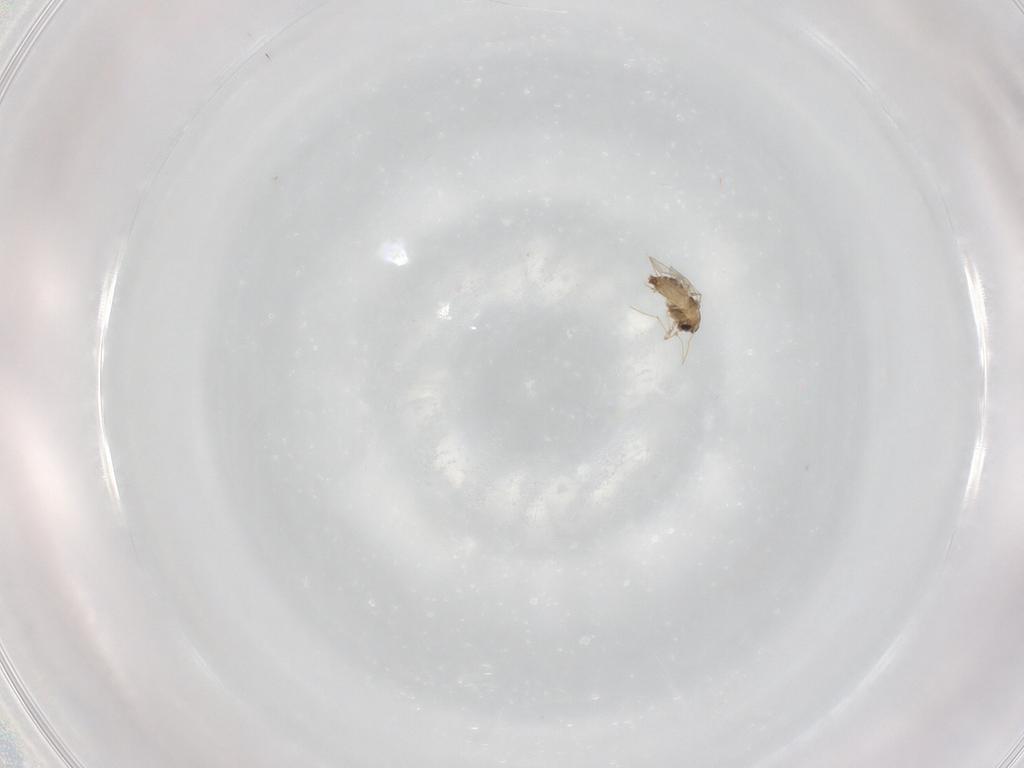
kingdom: Animalia
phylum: Arthropoda
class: Insecta
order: Diptera
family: Chironomidae
